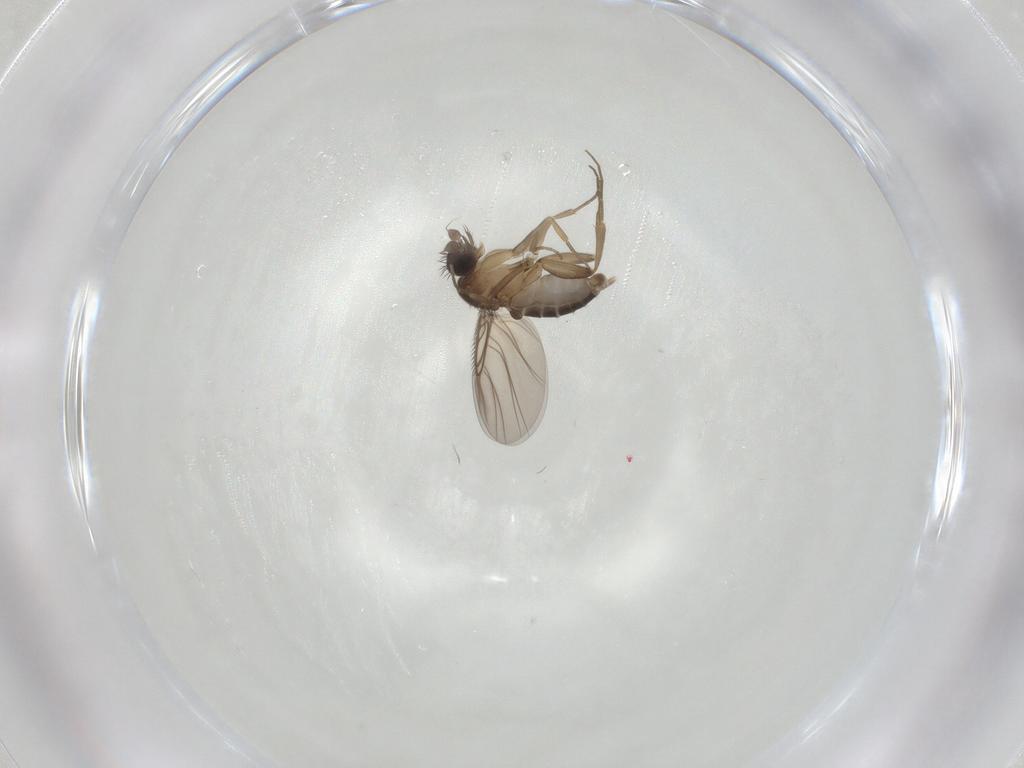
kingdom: Animalia
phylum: Arthropoda
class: Insecta
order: Diptera
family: Phoridae
